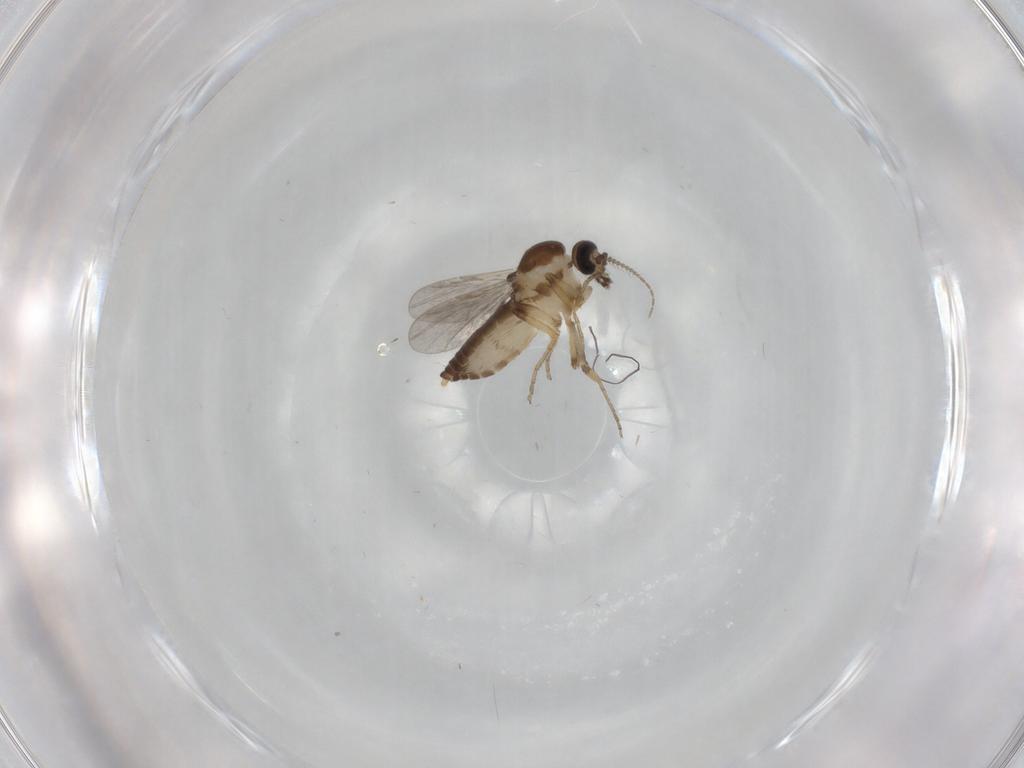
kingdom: Animalia
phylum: Arthropoda
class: Insecta
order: Diptera
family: Ceratopogonidae
